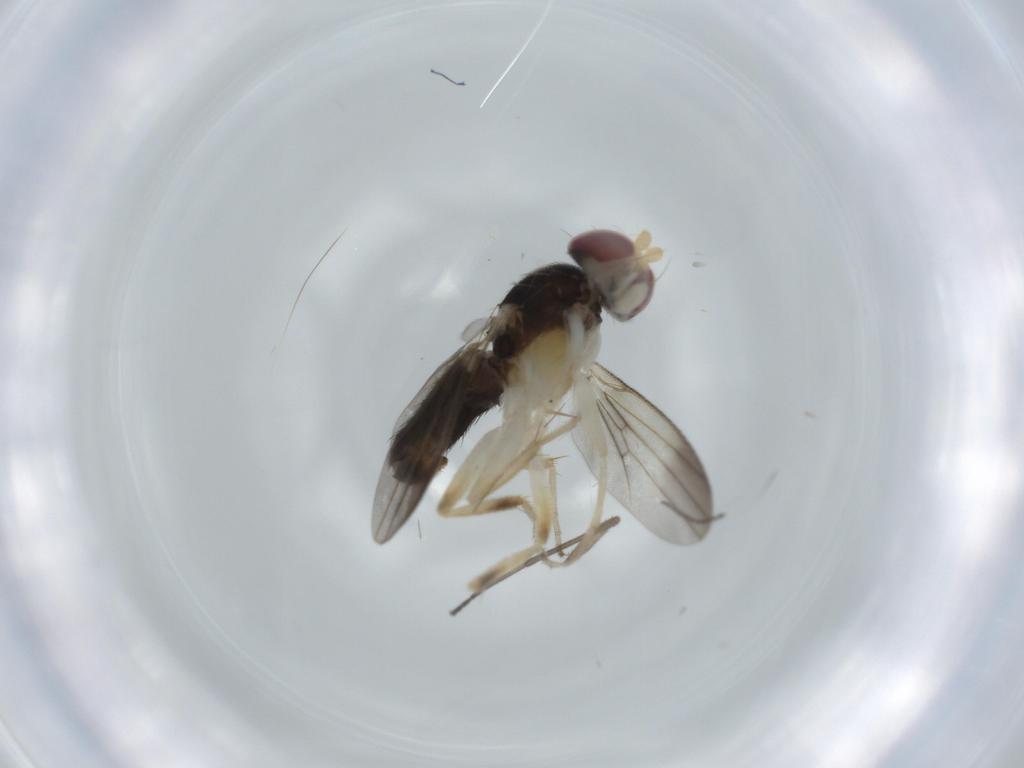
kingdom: Animalia
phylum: Arthropoda
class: Insecta
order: Diptera
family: Clusiidae
